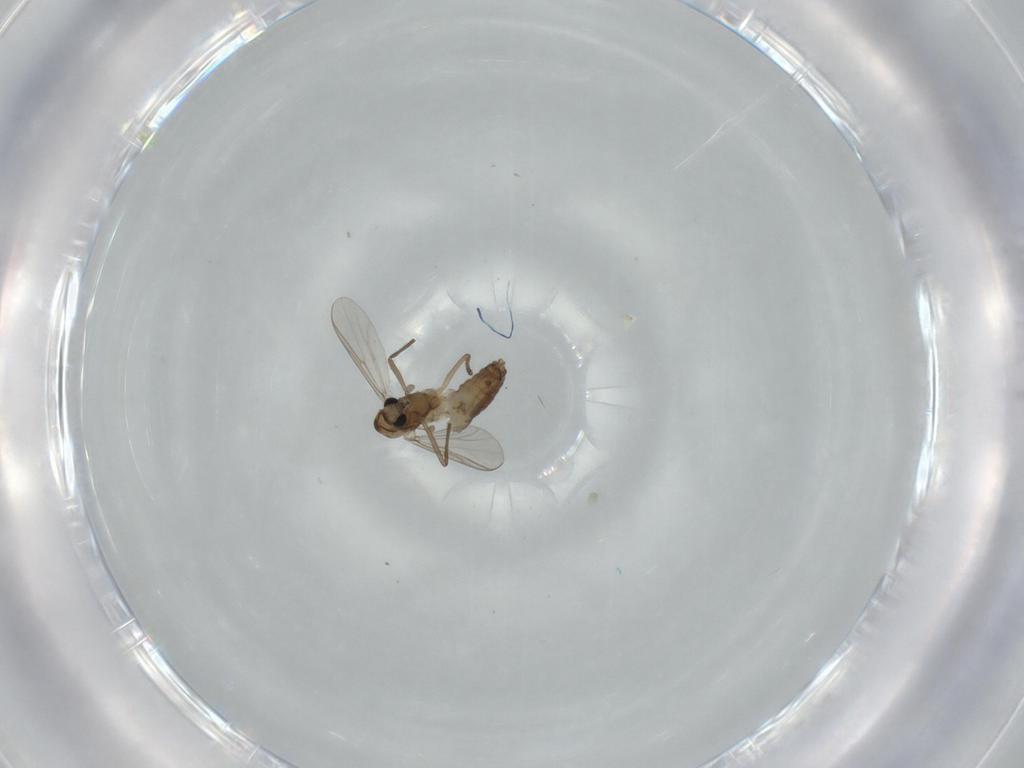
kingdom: Animalia
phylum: Arthropoda
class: Insecta
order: Diptera
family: Chironomidae
